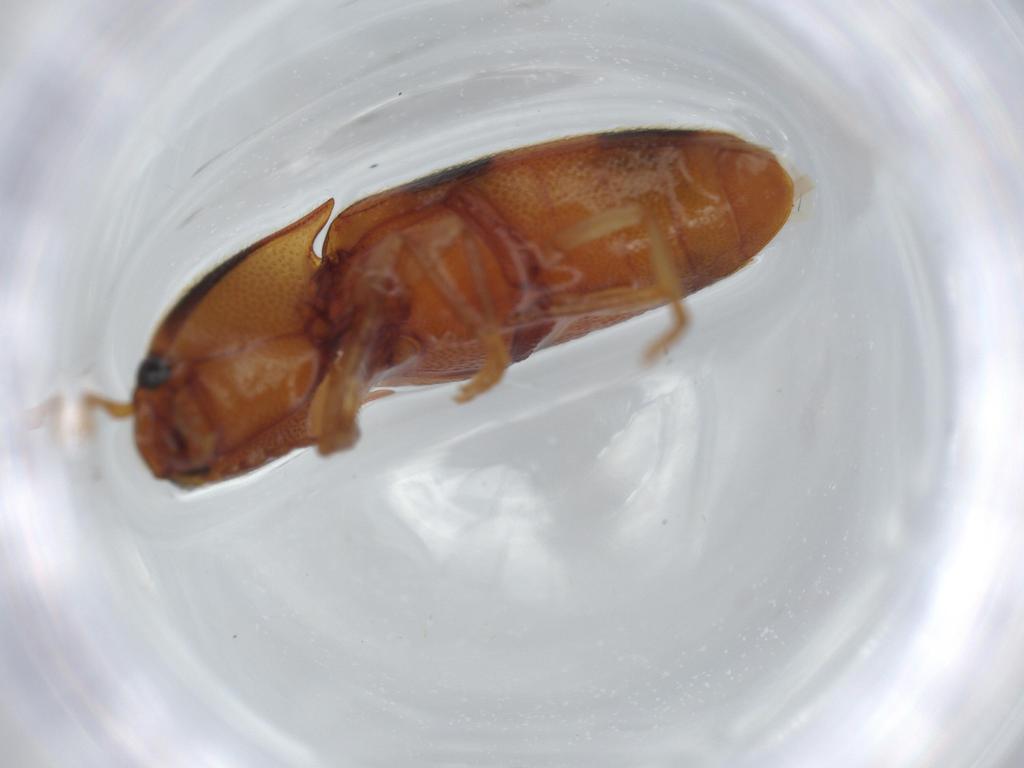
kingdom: Animalia
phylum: Arthropoda
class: Insecta
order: Coleoptera
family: Elateridae
